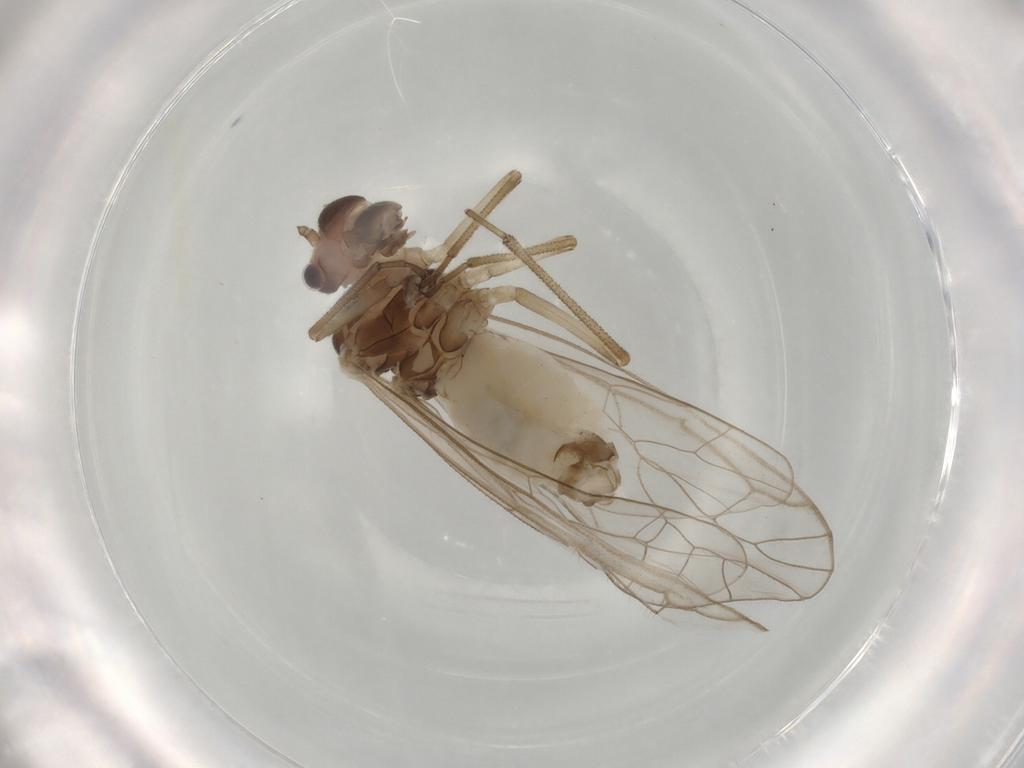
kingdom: Animalia
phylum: Arthropoda
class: Insecta
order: Psocodea
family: Stenopsocidae
